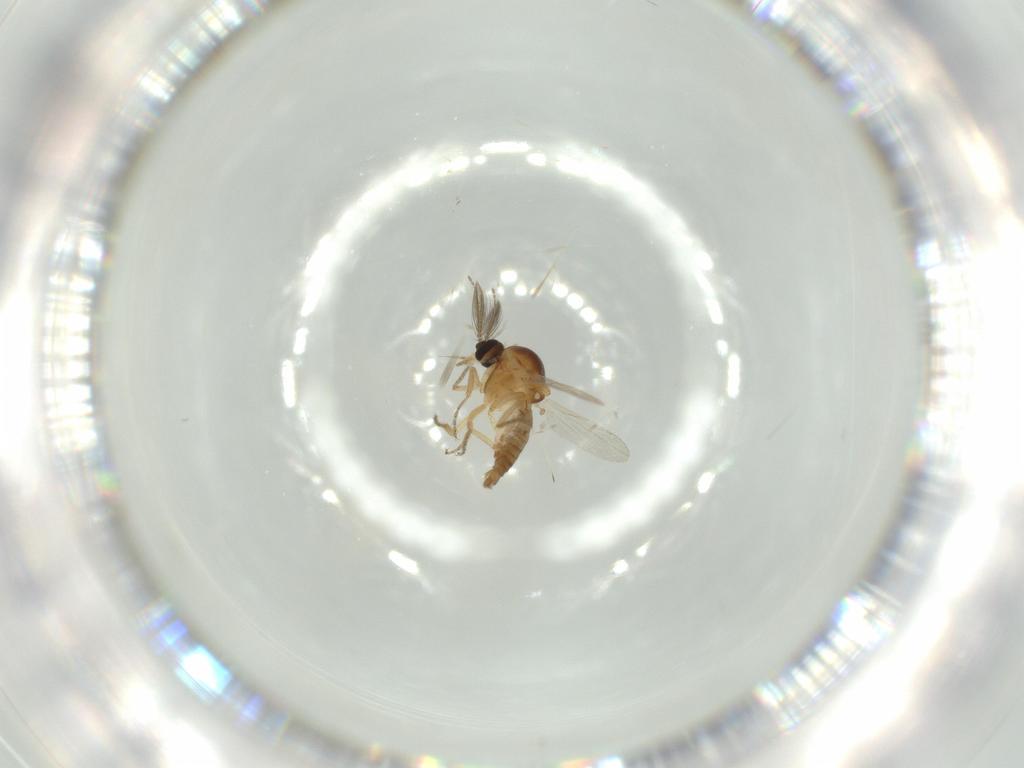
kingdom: Animalia
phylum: Arthropoda
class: Insecta
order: Diptera
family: Ceratopogonidae
